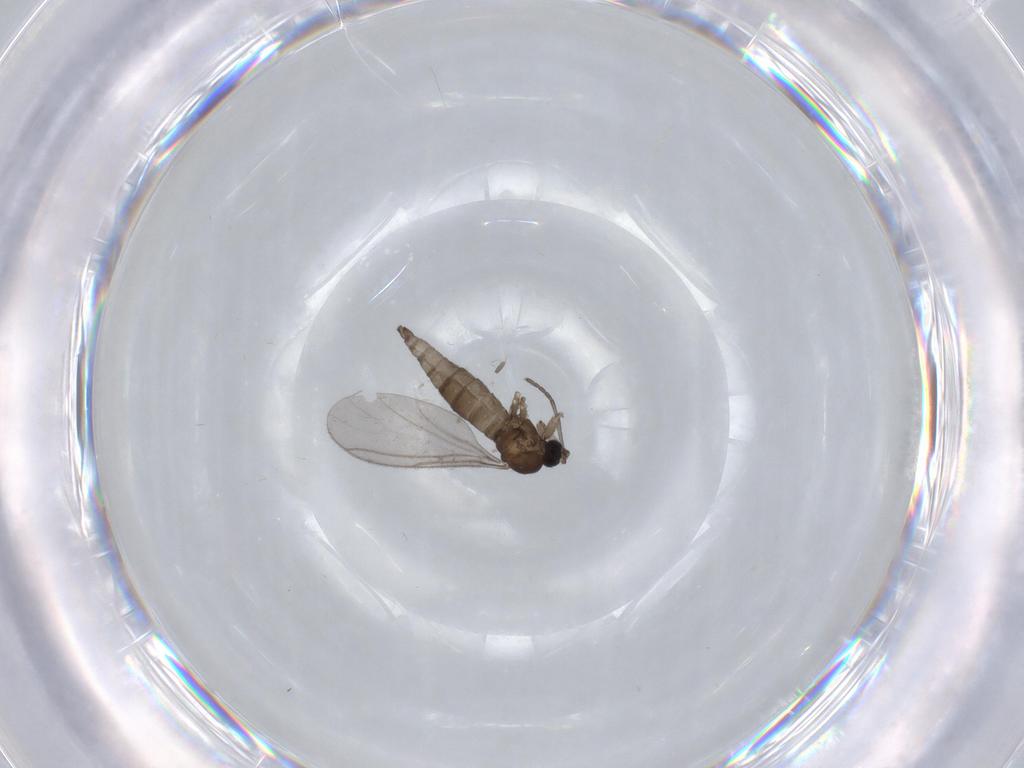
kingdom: Animalia
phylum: Arthropoda
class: Insecta
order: Diptera
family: Sciaridae
